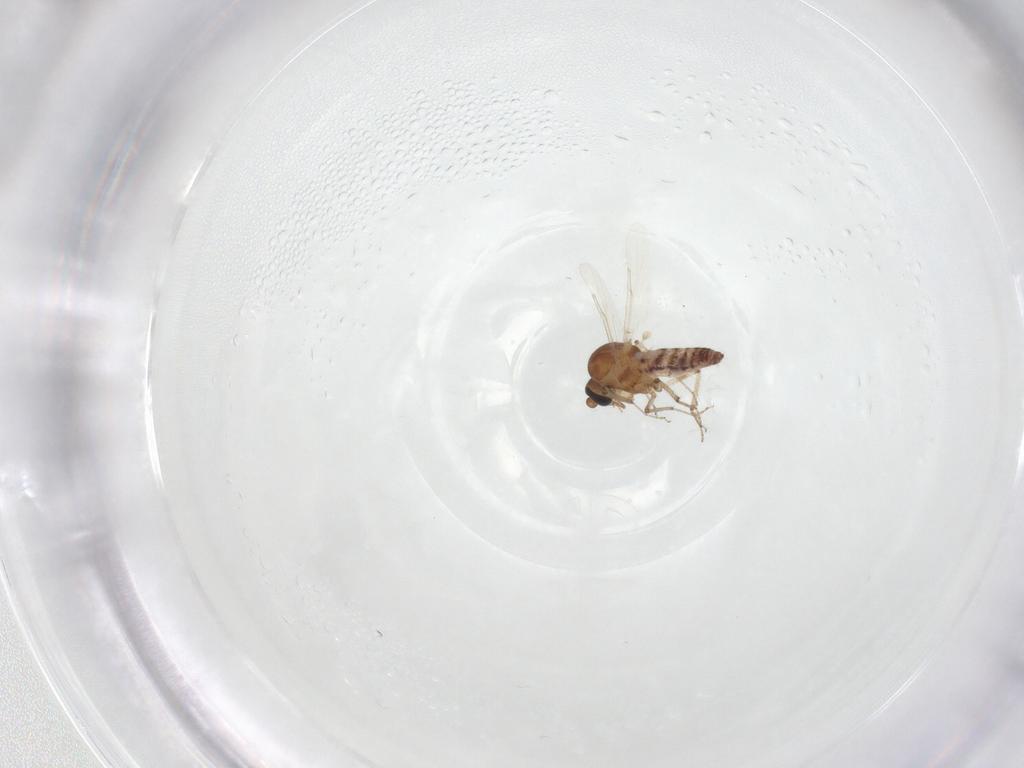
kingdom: Animalia
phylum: Arthropoda
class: Insecta
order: Diptera
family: Ceratopogonidae
